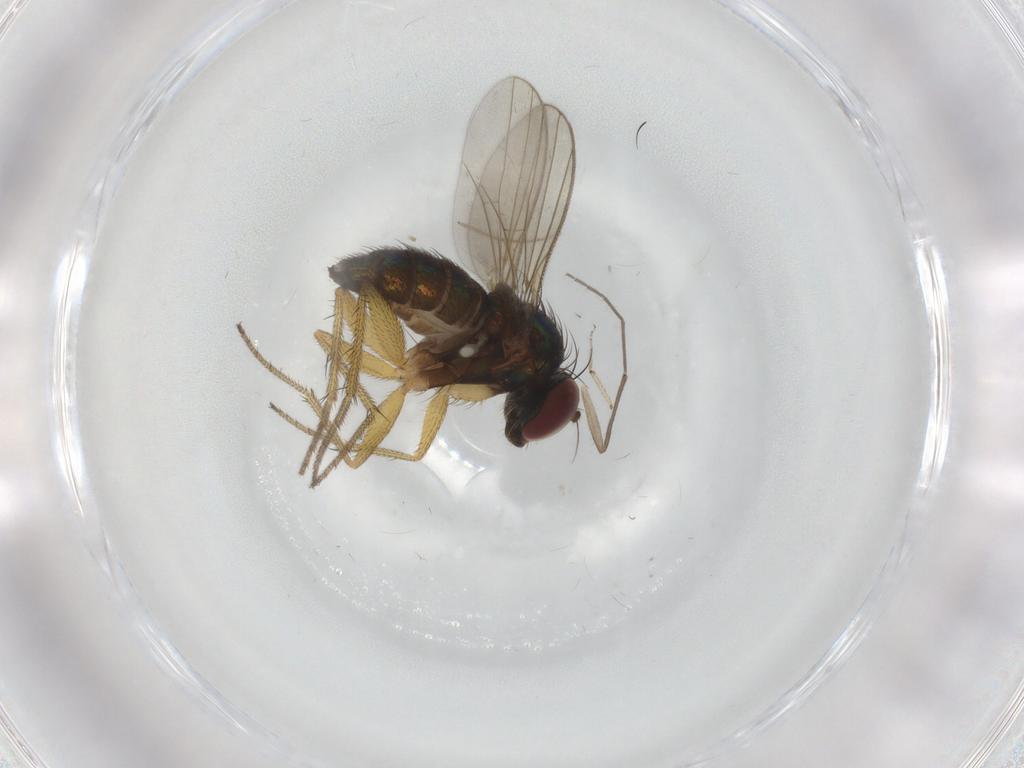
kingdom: Animalia
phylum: Arthropoda
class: Insecta
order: Diptera
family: Chironomidae
